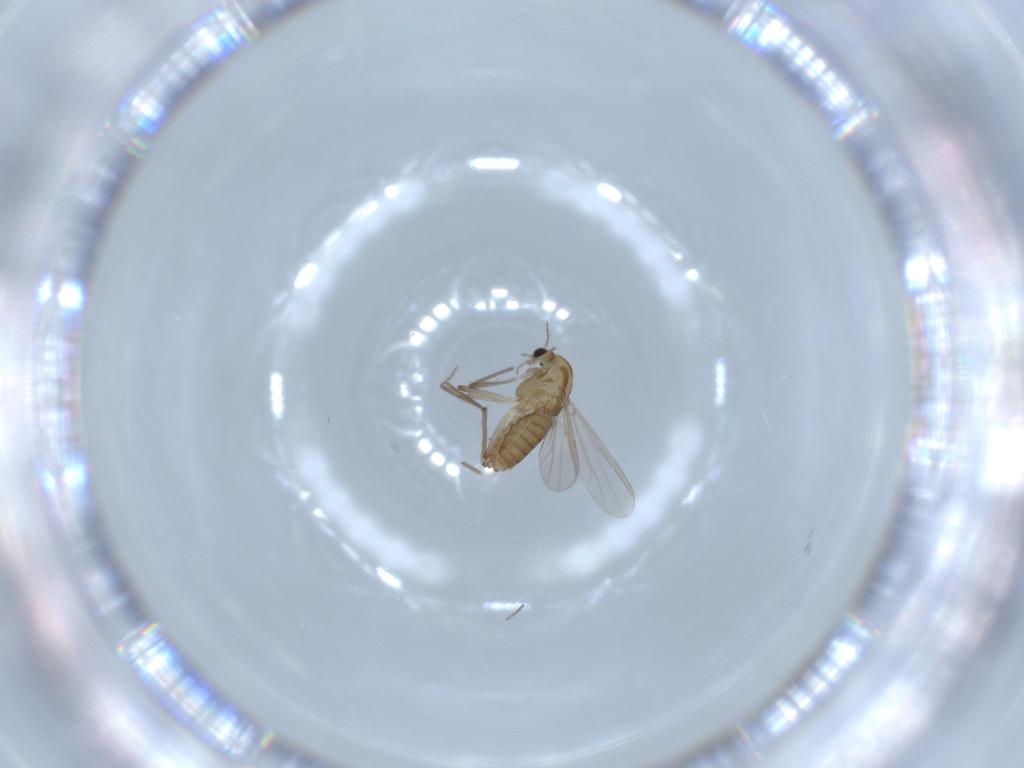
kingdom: Animalia
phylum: Arthropoda
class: Insecta
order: Diptera
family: Chironomidae
